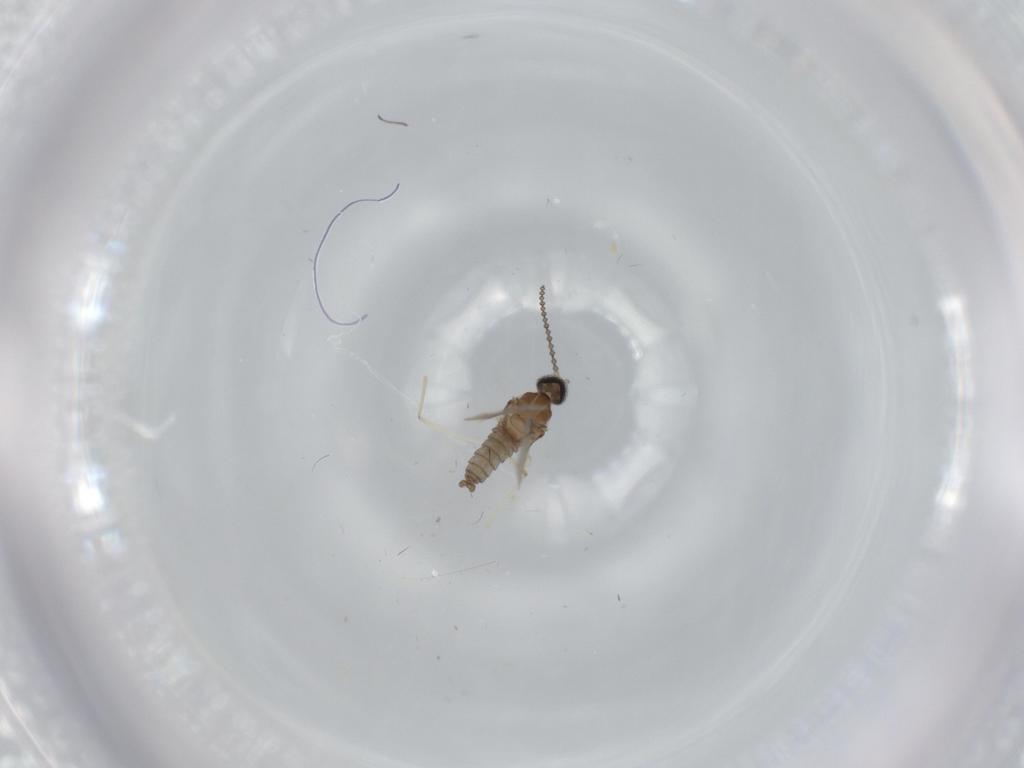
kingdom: Animalia
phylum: Arthropoda
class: Insecta
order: Diptera
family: Cecidomyiidae
